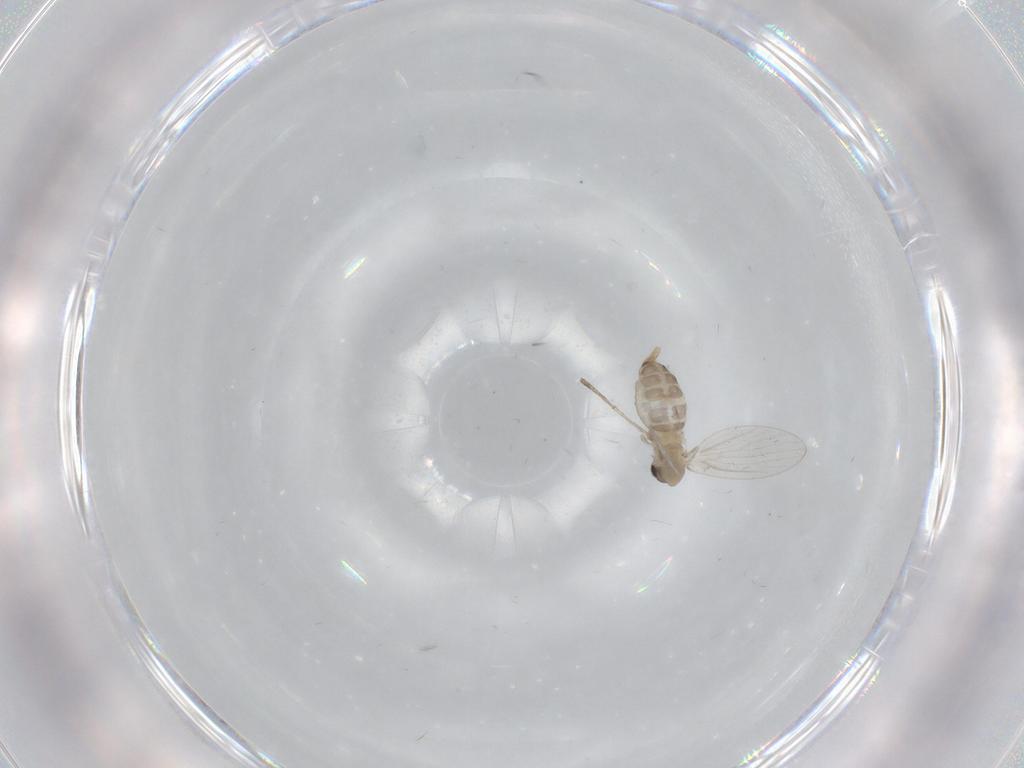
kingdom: Animalia
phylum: Arthropoda
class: Insecta
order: Diptera
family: Psychodidae
